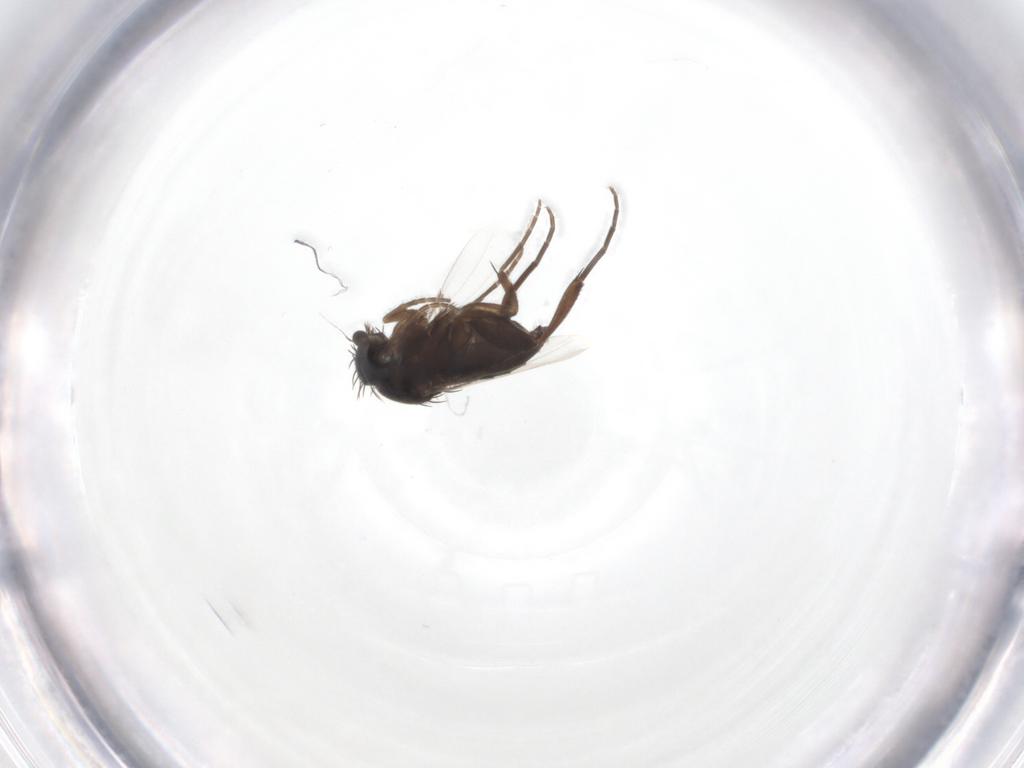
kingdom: Animalia
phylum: Arthropoda
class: Insecta
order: Diptera
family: Phoridae
